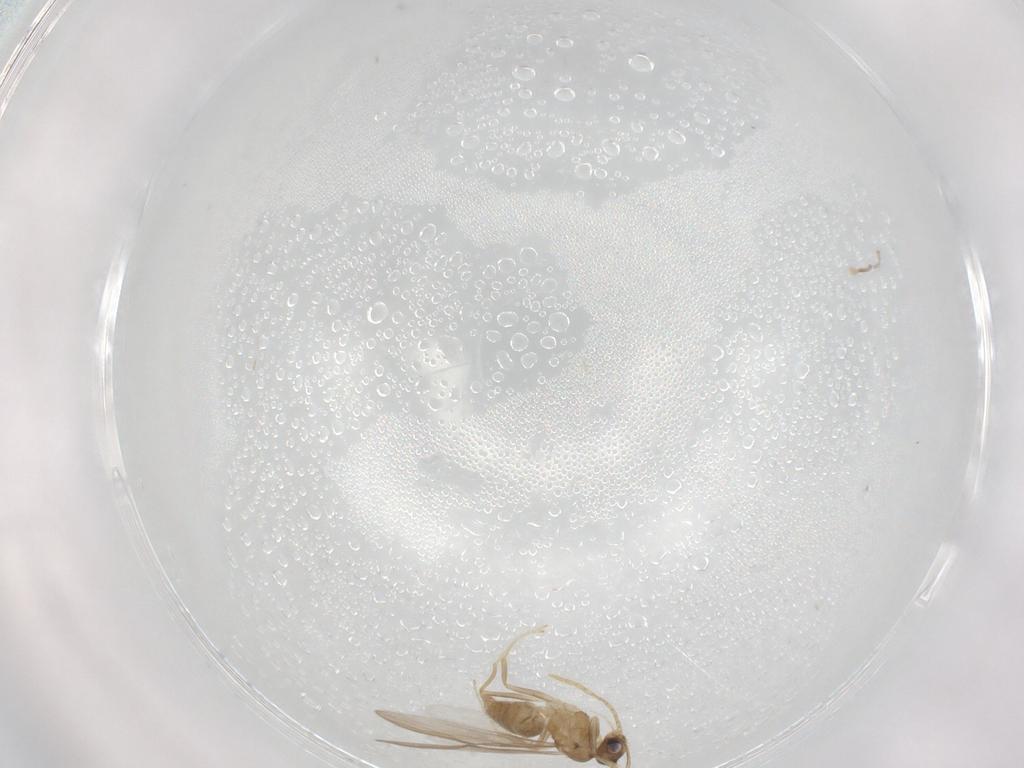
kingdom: Animalia
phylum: Arthropoda
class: Insecta
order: Hymenoptera
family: Formicidae
